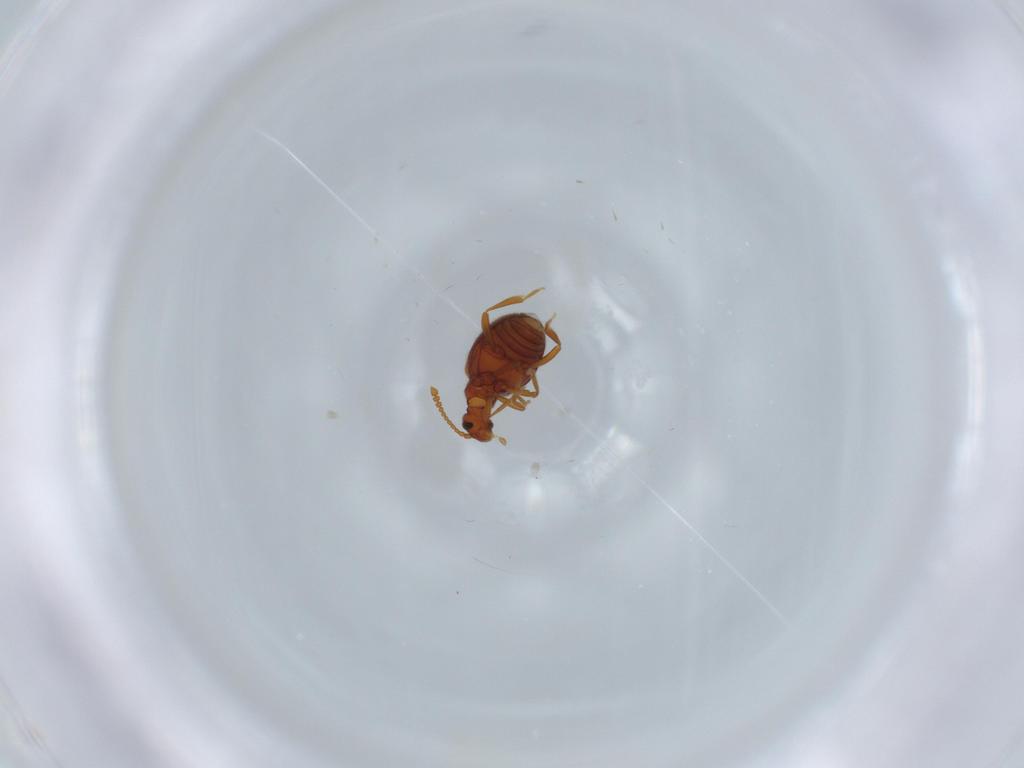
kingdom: Animalia
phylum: Arthropoda
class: Insecta
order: Coleoptera
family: Aderidae
